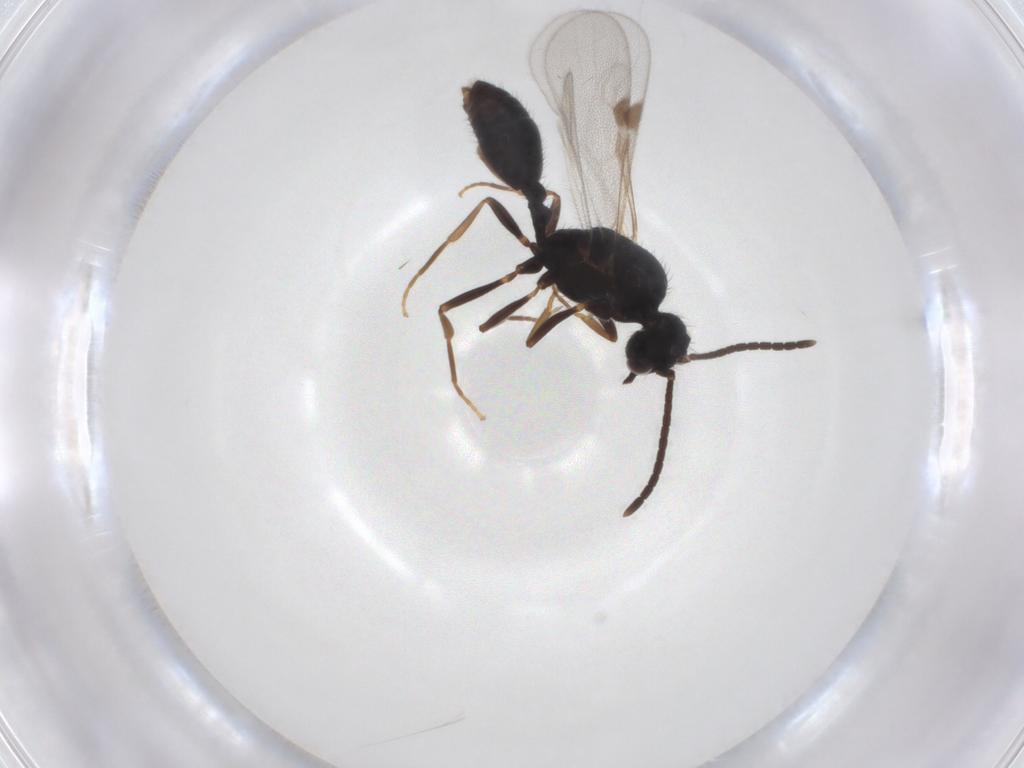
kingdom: Animalia
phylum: Arthropoda
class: Insecta
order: Hymenoptera
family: Formicidae
